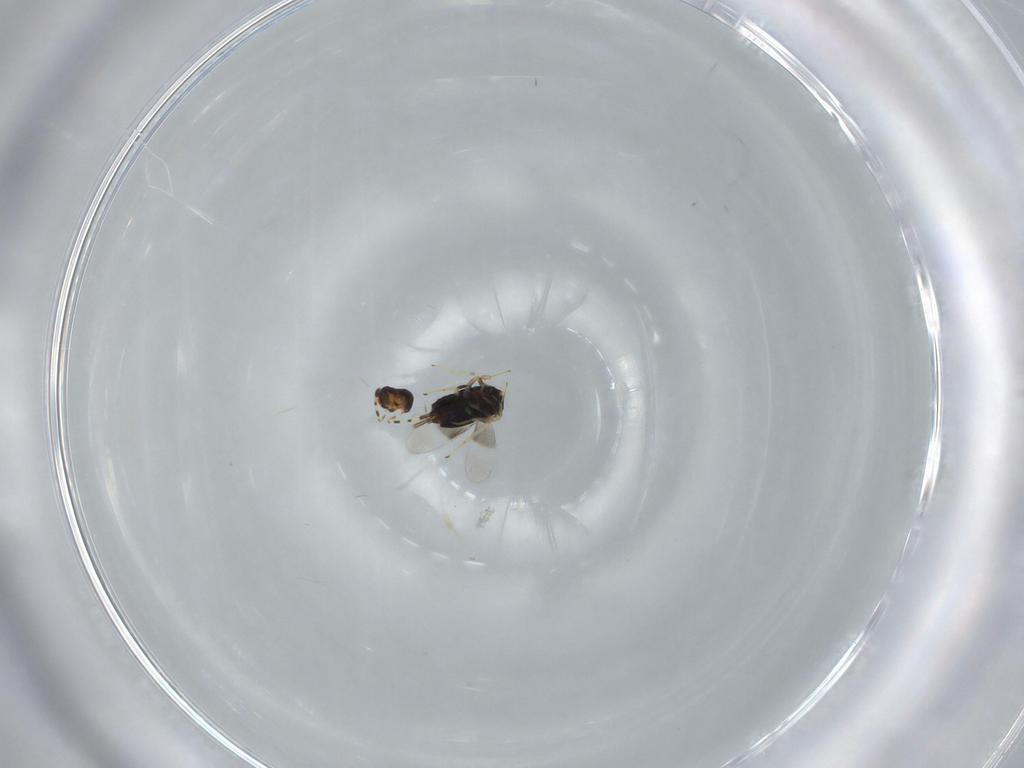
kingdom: Animalia
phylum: Arthropoda
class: Insecta
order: Hymenoptera
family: Azotidae
